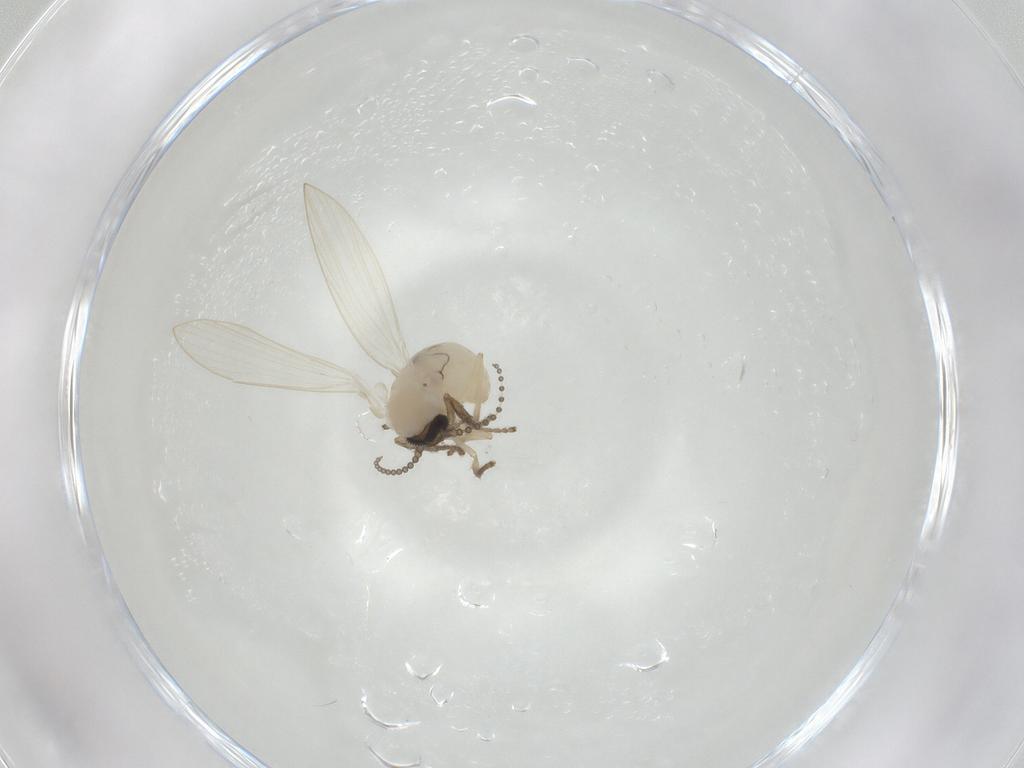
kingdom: Animalia
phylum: Arthropoda
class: Insecta
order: Diptera
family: Psychodidae
